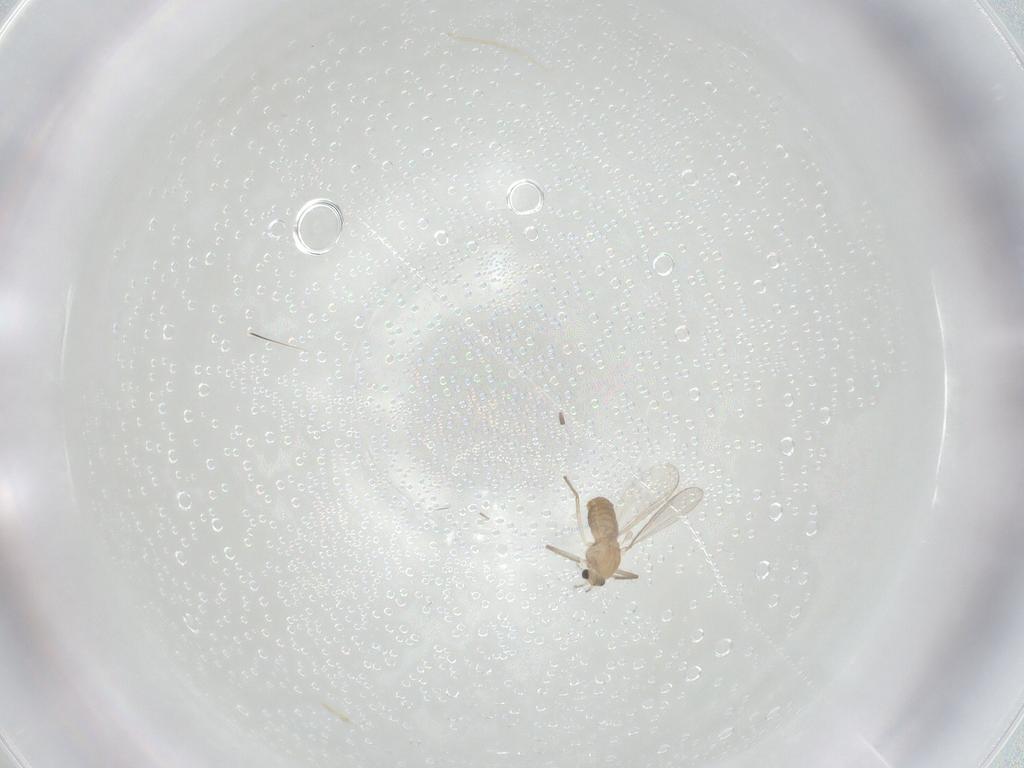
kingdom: Animalia
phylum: Arthropoda
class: Insecta
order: Diptera
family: Chironomidae
